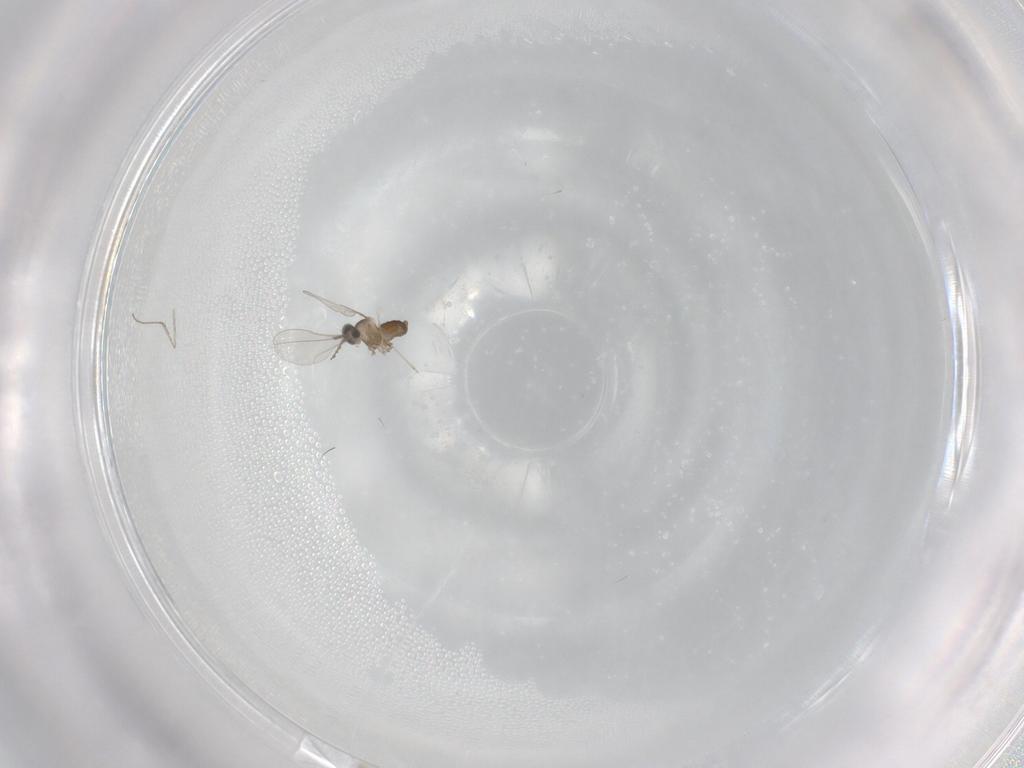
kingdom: Animalia
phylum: Arthropoda
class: Insecta
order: Diptera
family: Cecidomyiidae
